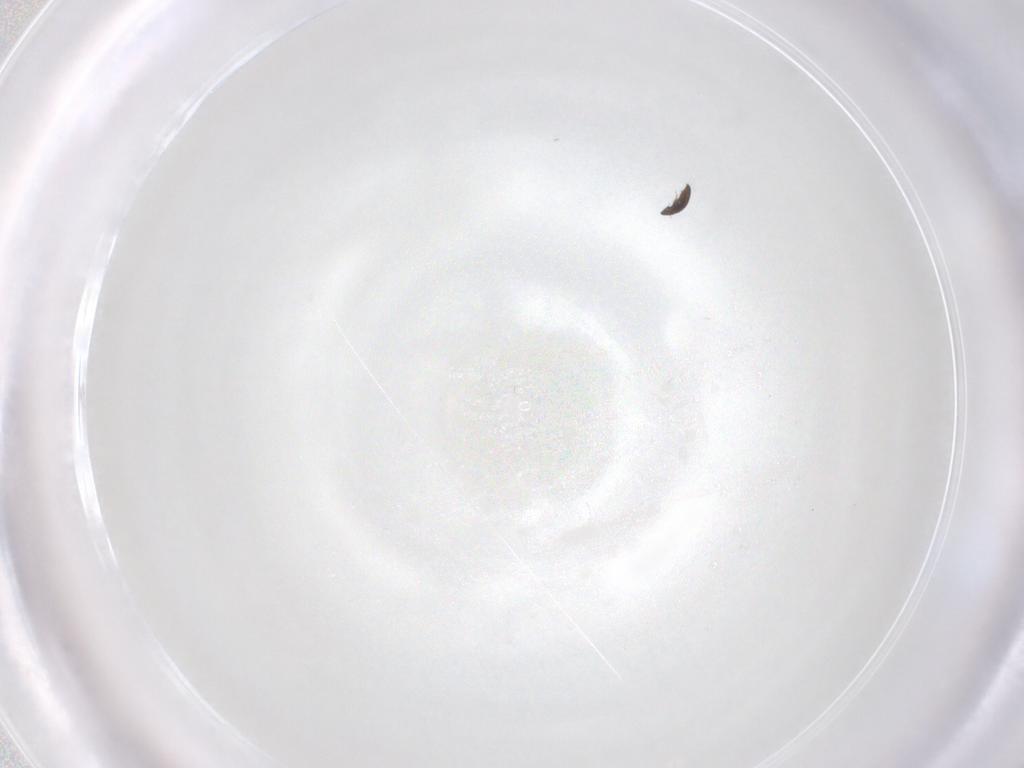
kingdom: Animalia
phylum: Arthropoda
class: Insecta
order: Coleoptera
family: Ripiphoridae
